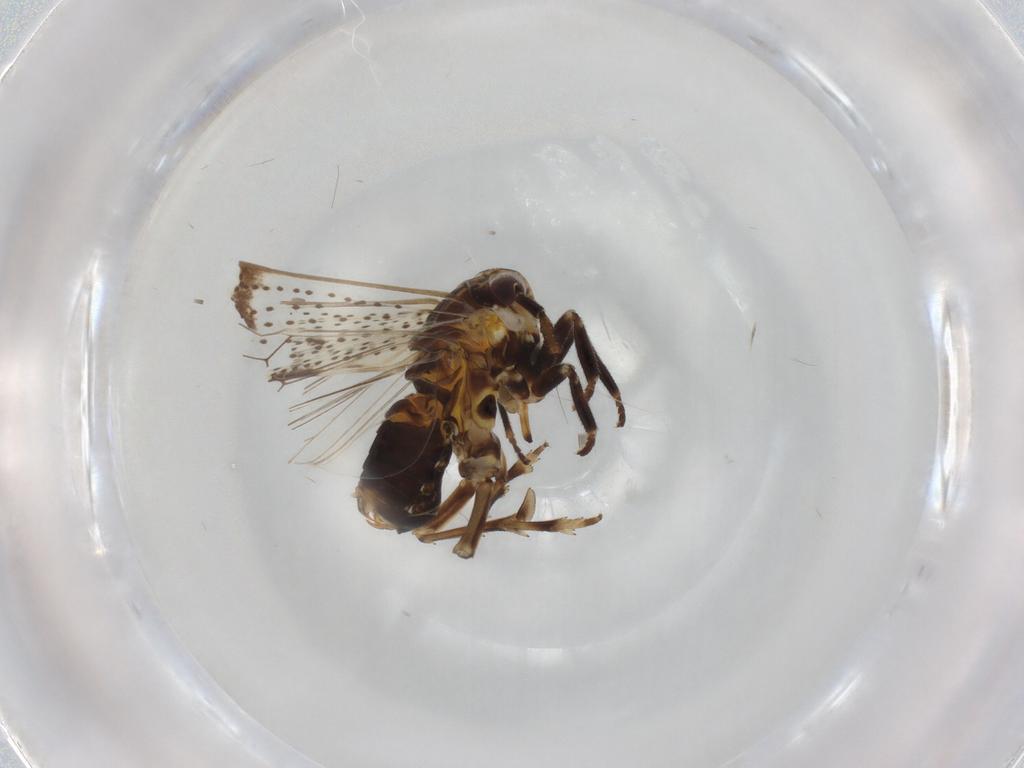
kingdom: Animalia
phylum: Arthropoda
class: Insecta
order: Hemiptera
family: Delphacidae
